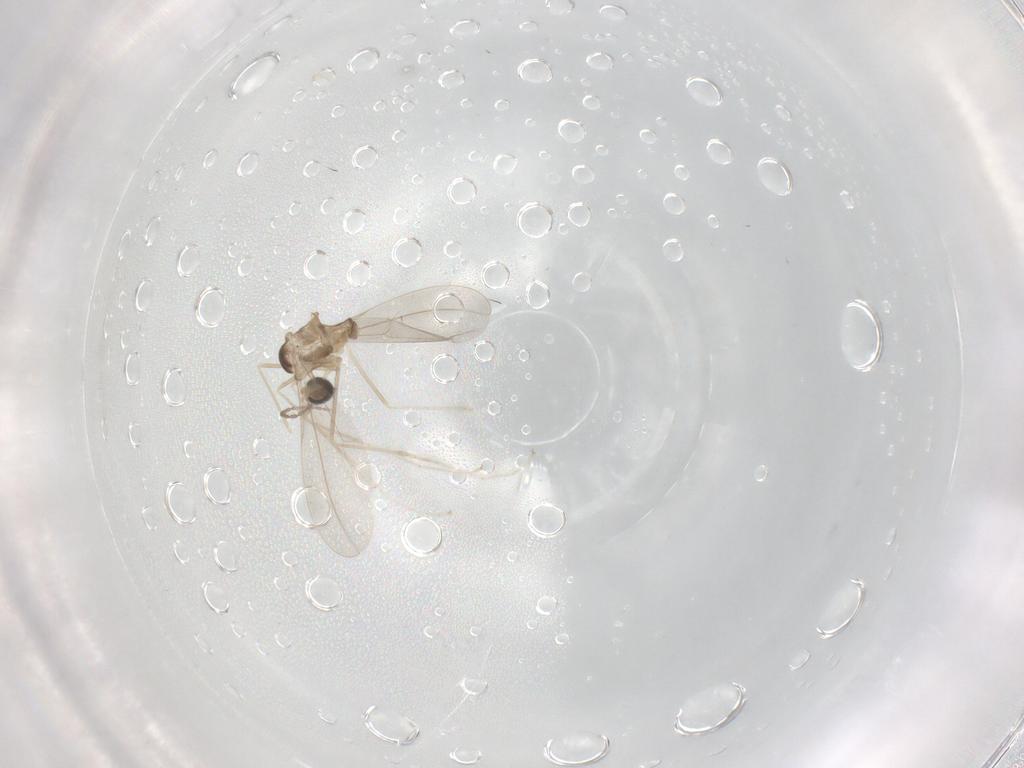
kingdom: Animalia
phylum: Arthropoda
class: Insecta
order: Diptera
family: Cecidomyiidae
